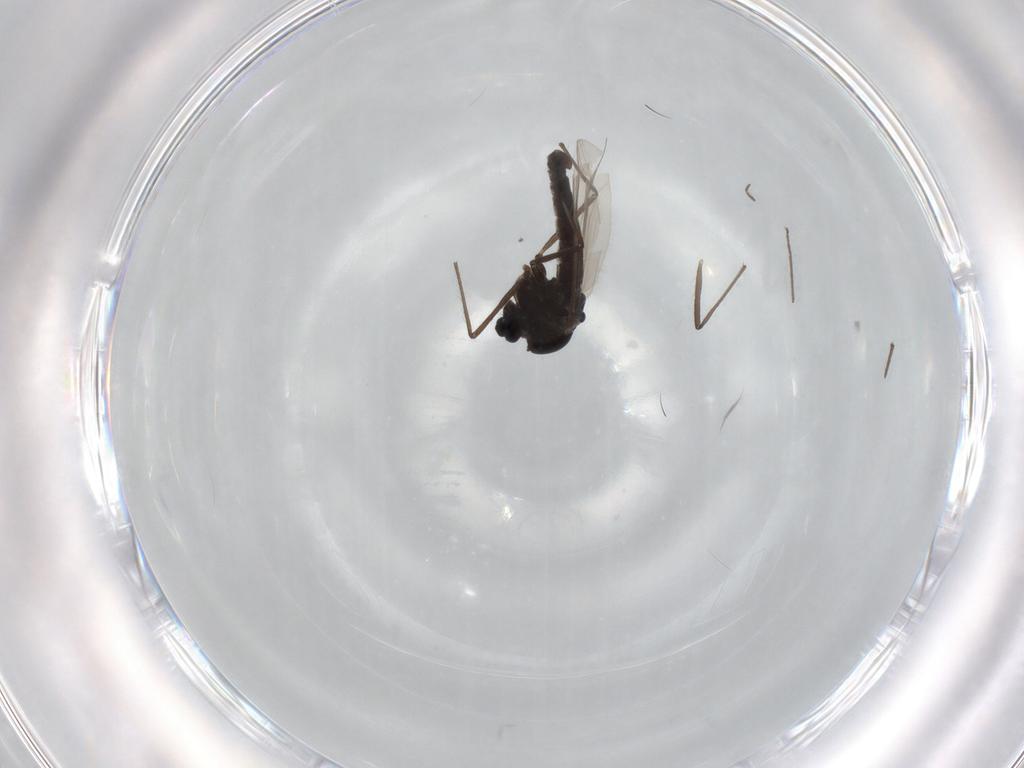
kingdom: Animalia
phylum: Arthropoda
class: Insecta
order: Diptera
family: Chironomidae
